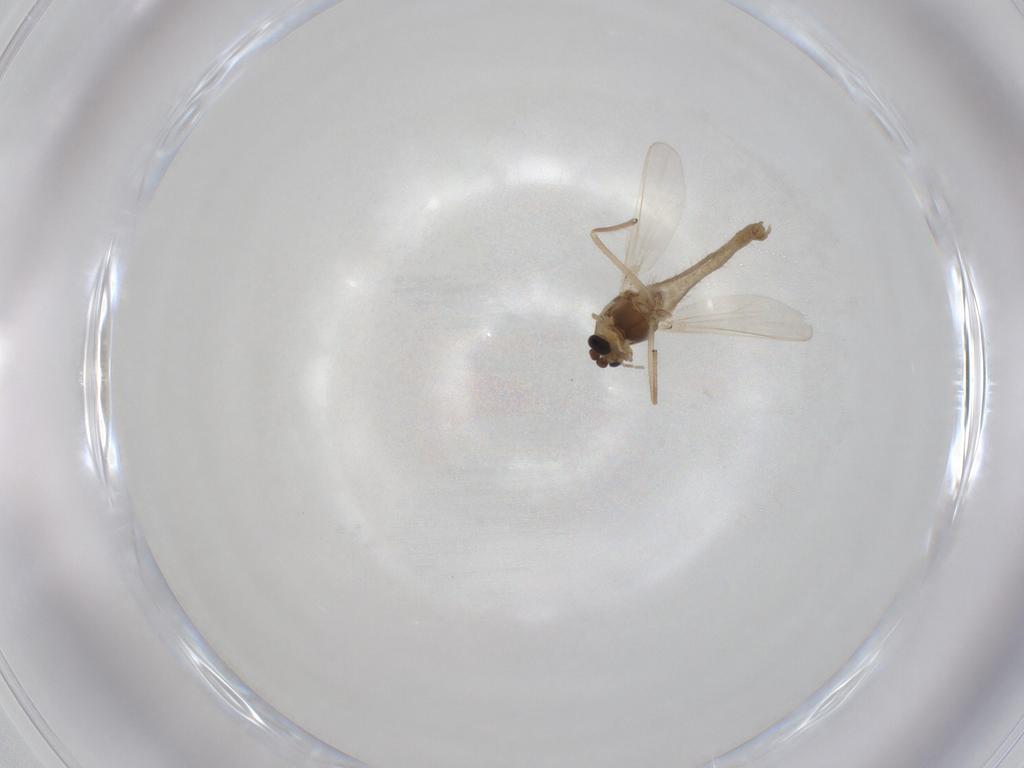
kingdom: Animalia
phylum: Arthropoda
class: Insecta
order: Diptera
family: Chironomidae
